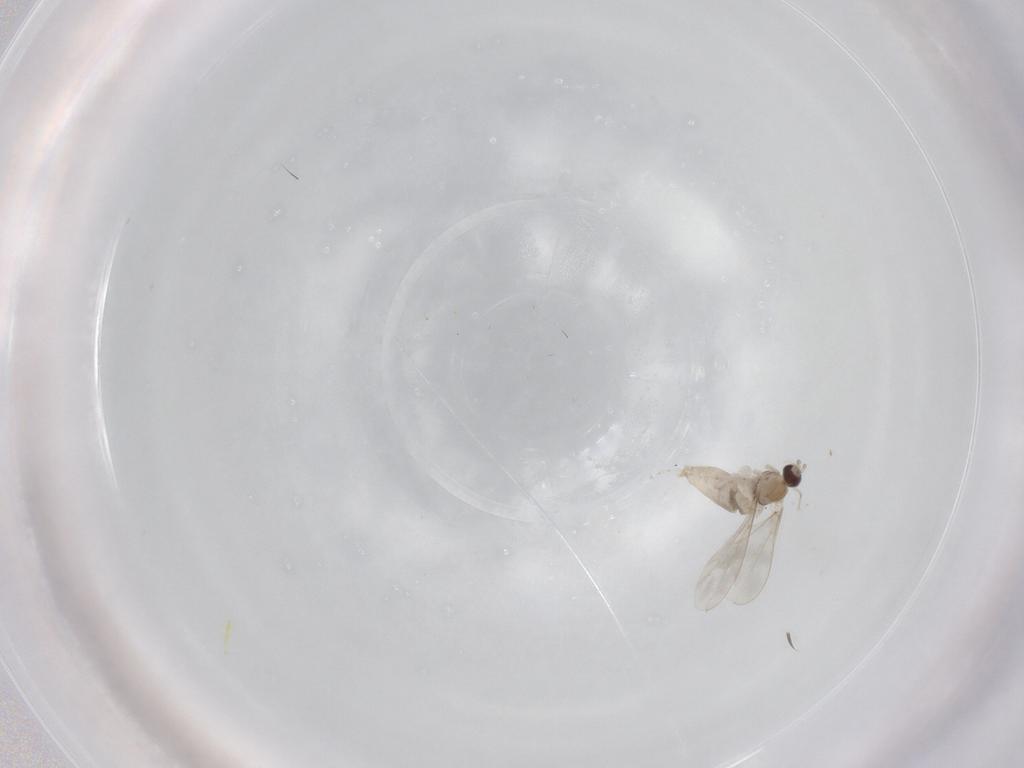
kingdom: Animalia
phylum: Arthropoda
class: Insecta
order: Diptera
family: Cecidomyiidae
